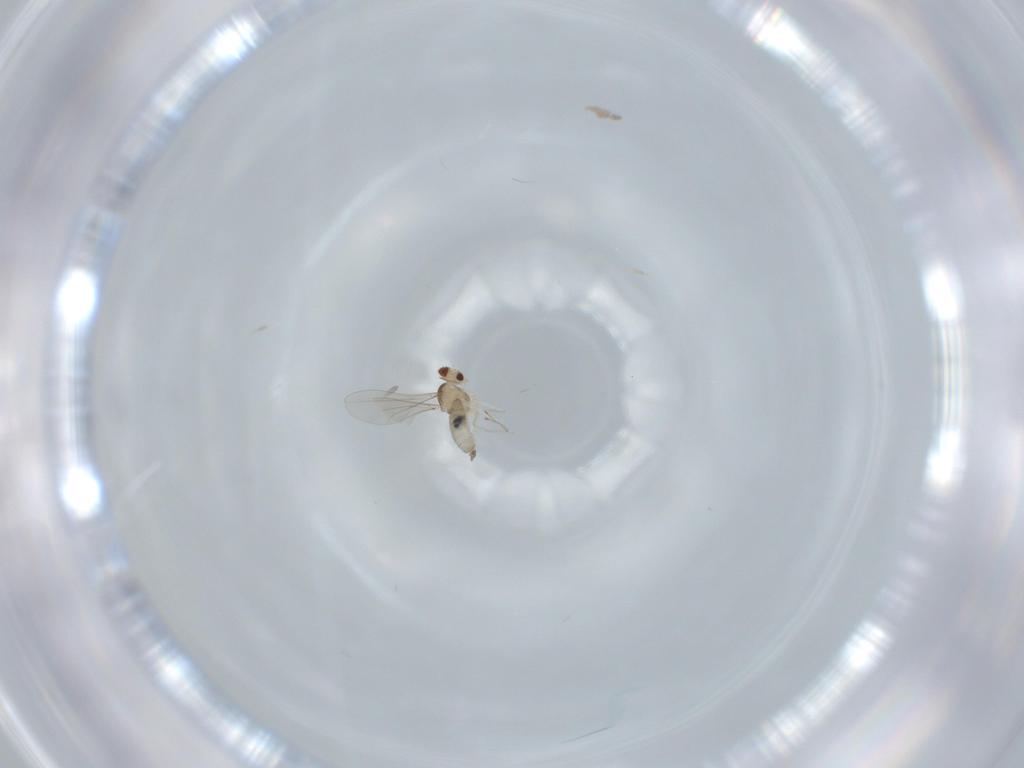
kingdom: Animalia
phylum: Arthropoda
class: Insecta
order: Diptera
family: Cecidomyiidae
